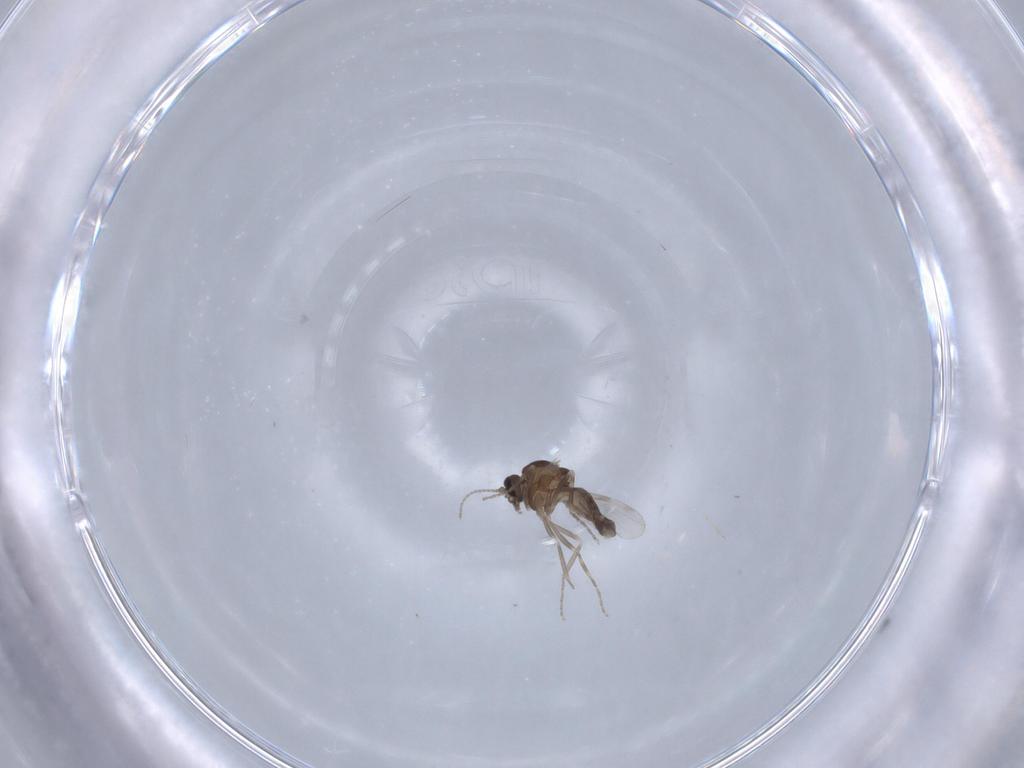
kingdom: Animalia
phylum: Arthropoda
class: Insecta
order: Diptera
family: Ceratopogonidae
